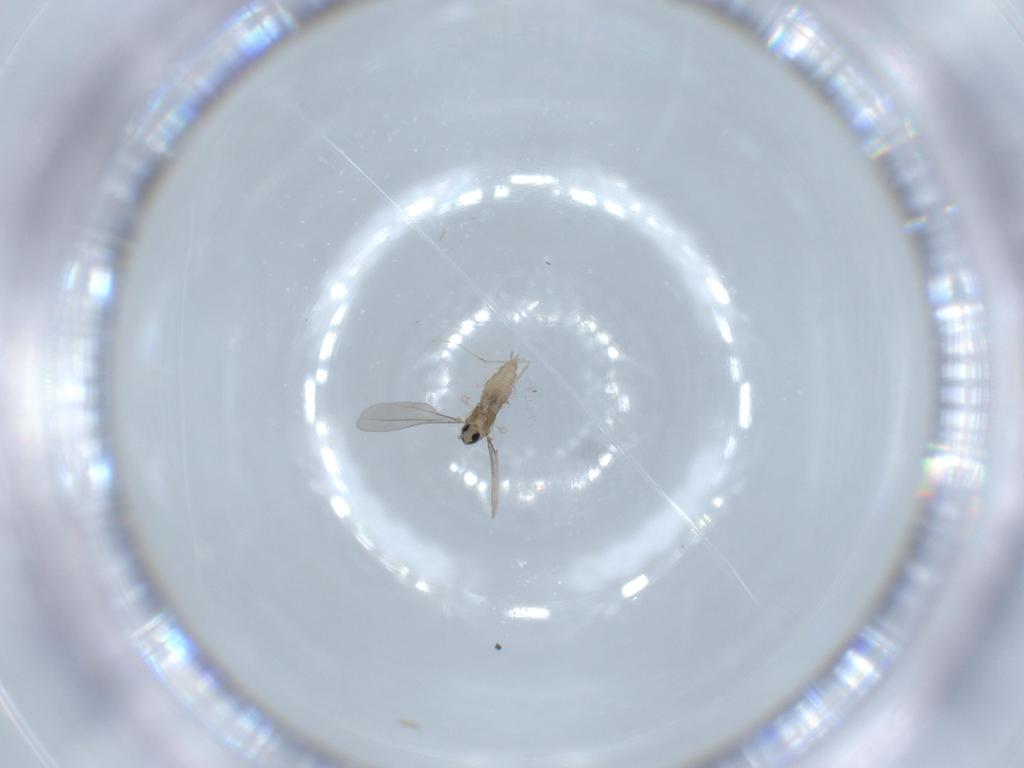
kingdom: Animalia
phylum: Arthropoda
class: Insecta
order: Diptera
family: Cecidomyiidae
